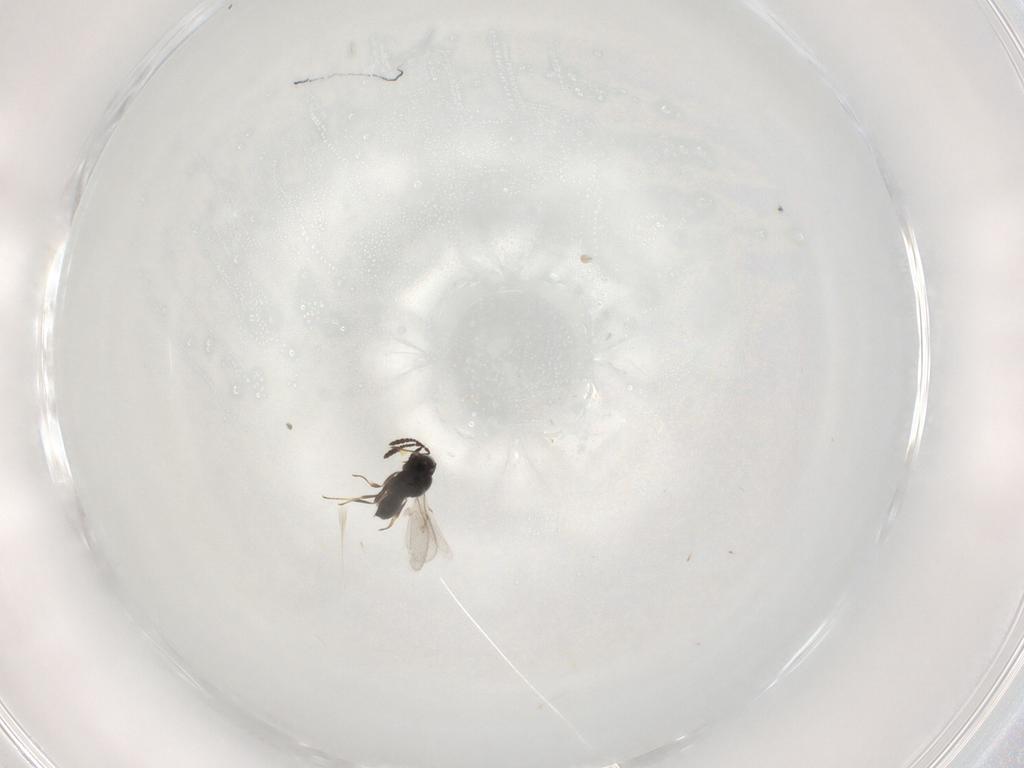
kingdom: Animalia
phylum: Arthropoda
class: Insecta
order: Hymenoptera
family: Scelionidae
